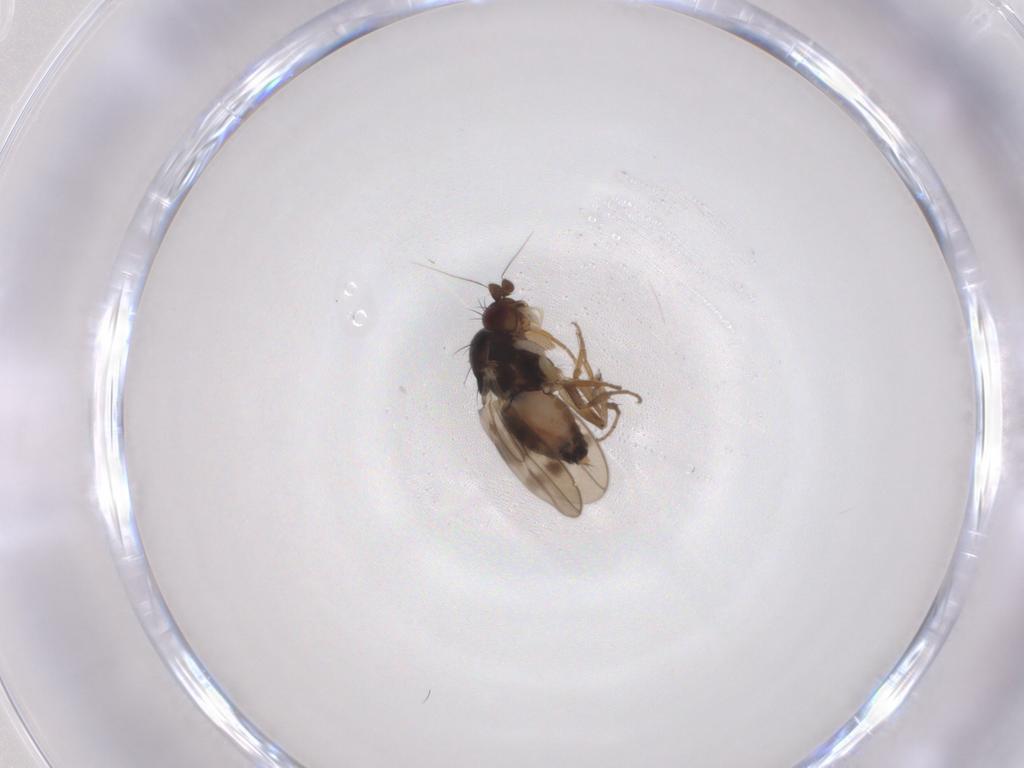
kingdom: Animalia
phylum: Arthropoda
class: Insecta
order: Diptera
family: Sphaeroceridae
